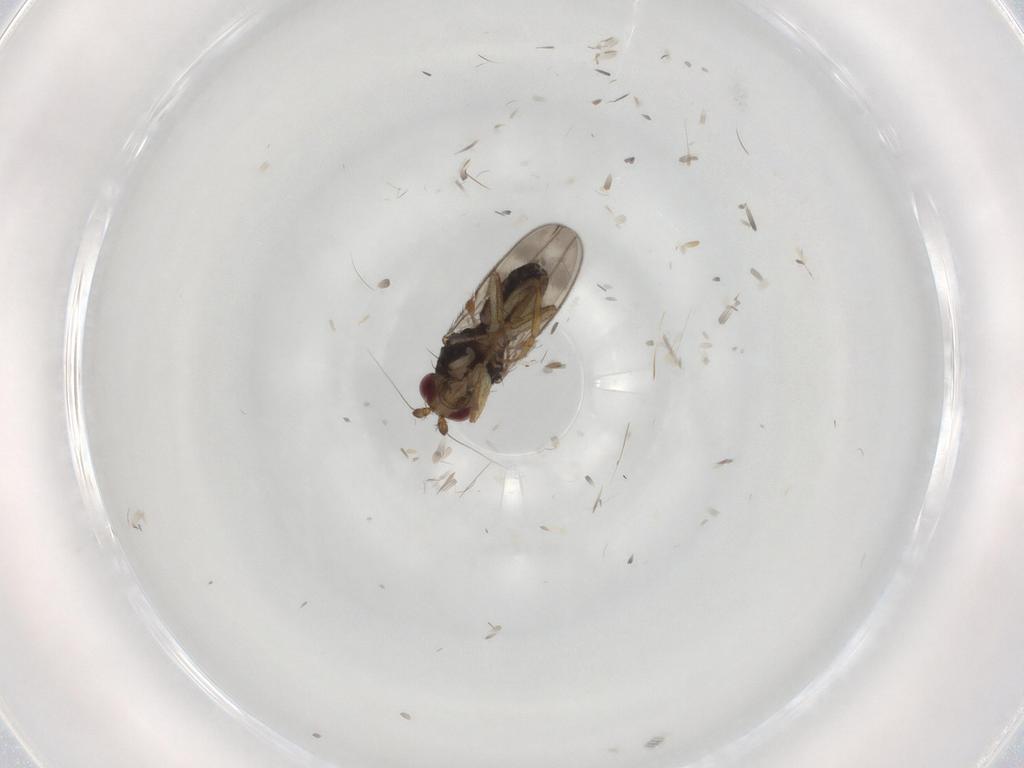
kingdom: Animalia
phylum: Arthropoda
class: Insecta
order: Diptera
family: Sphaeroceridae
